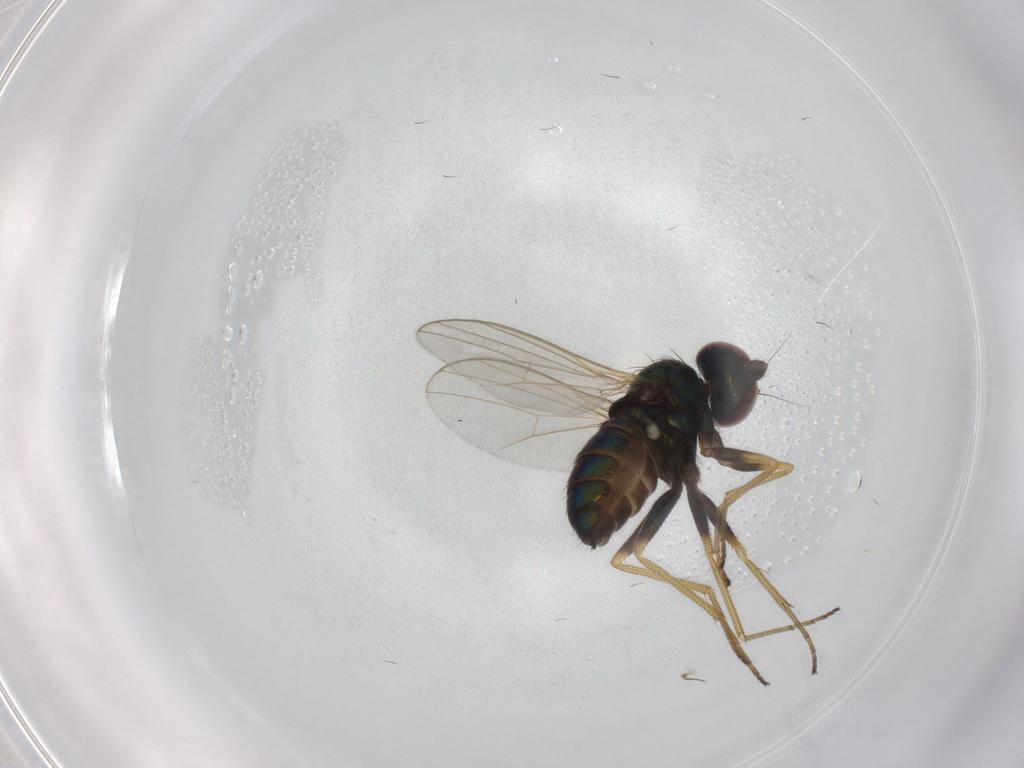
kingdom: Animalia
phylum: Arthropoda
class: Insecta
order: Diptera
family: Dolichopodidae
